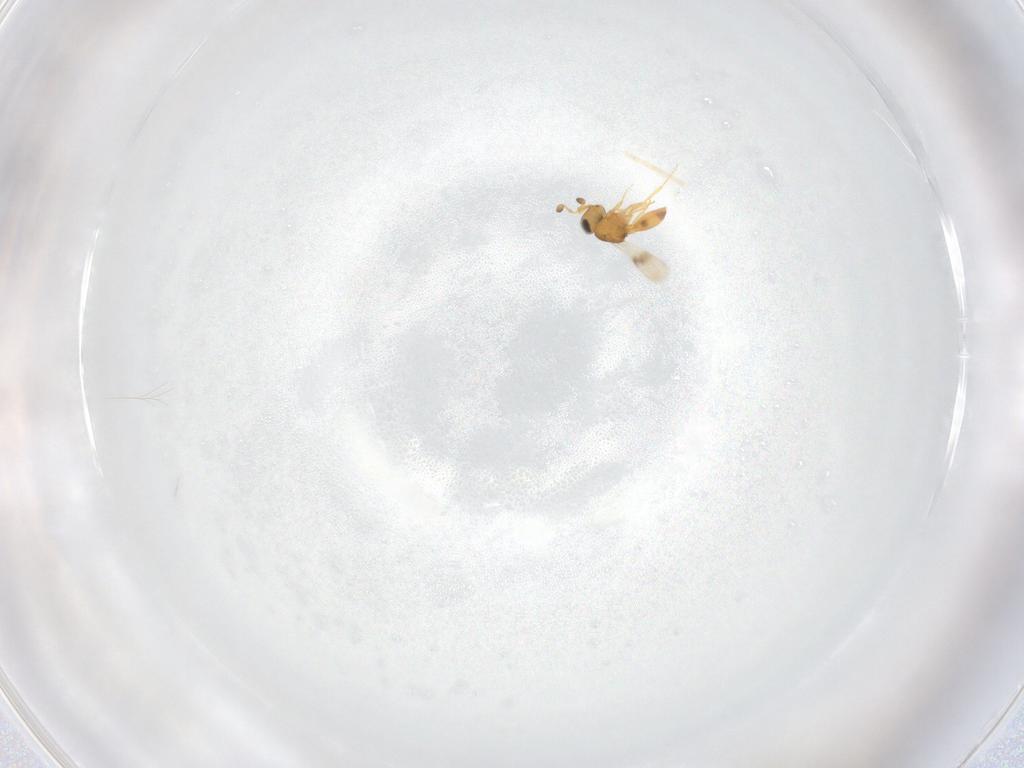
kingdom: Animalia
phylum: Arthropoda
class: Insecta
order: Hymenoptera
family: Scelionidae
